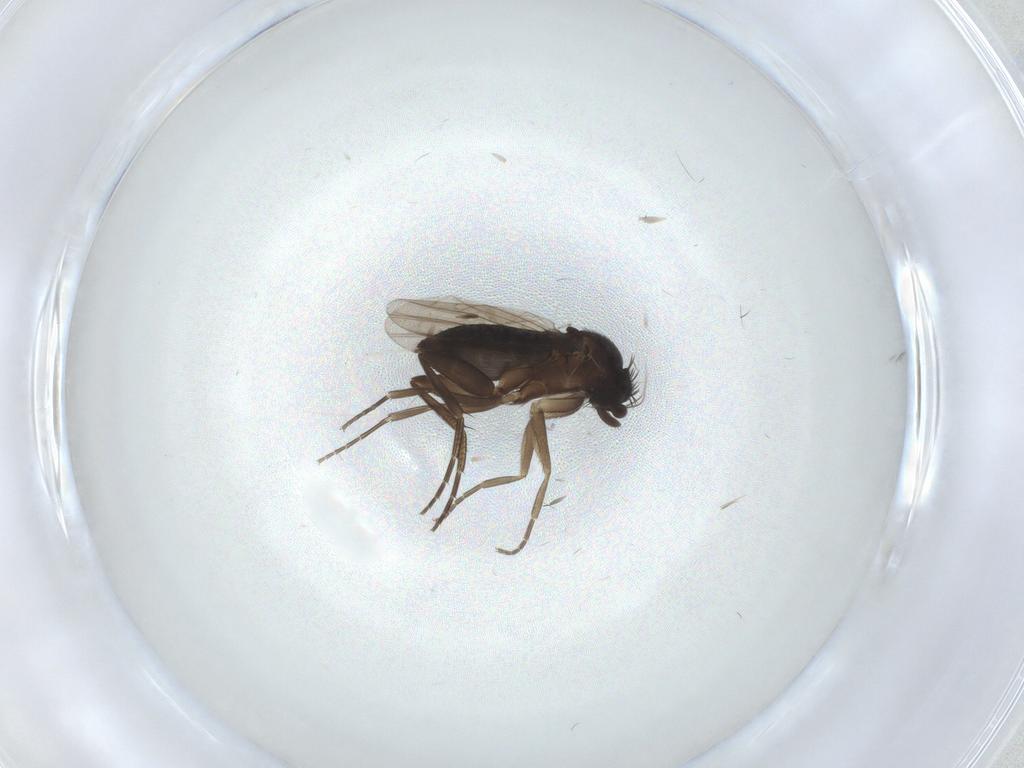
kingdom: Animalia
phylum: Arthropoda
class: Insecta
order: Diptera
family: Phoridae
